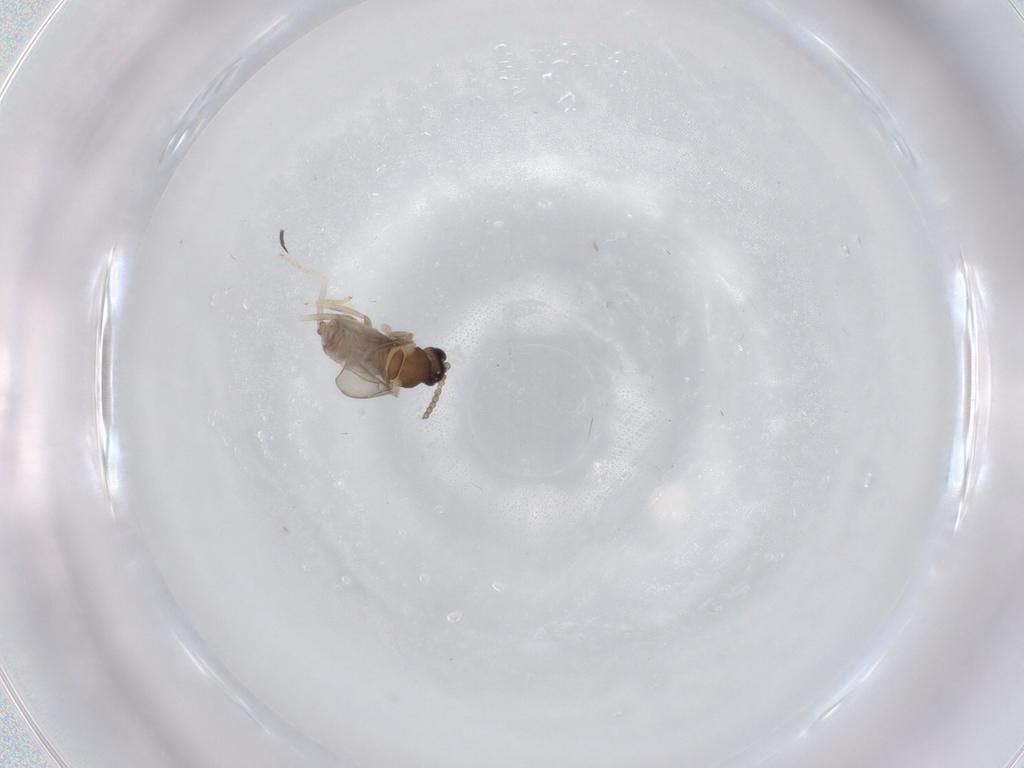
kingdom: Animalia
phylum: Arthropoda
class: Insecta
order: Diptera
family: Cecidomyiidae
